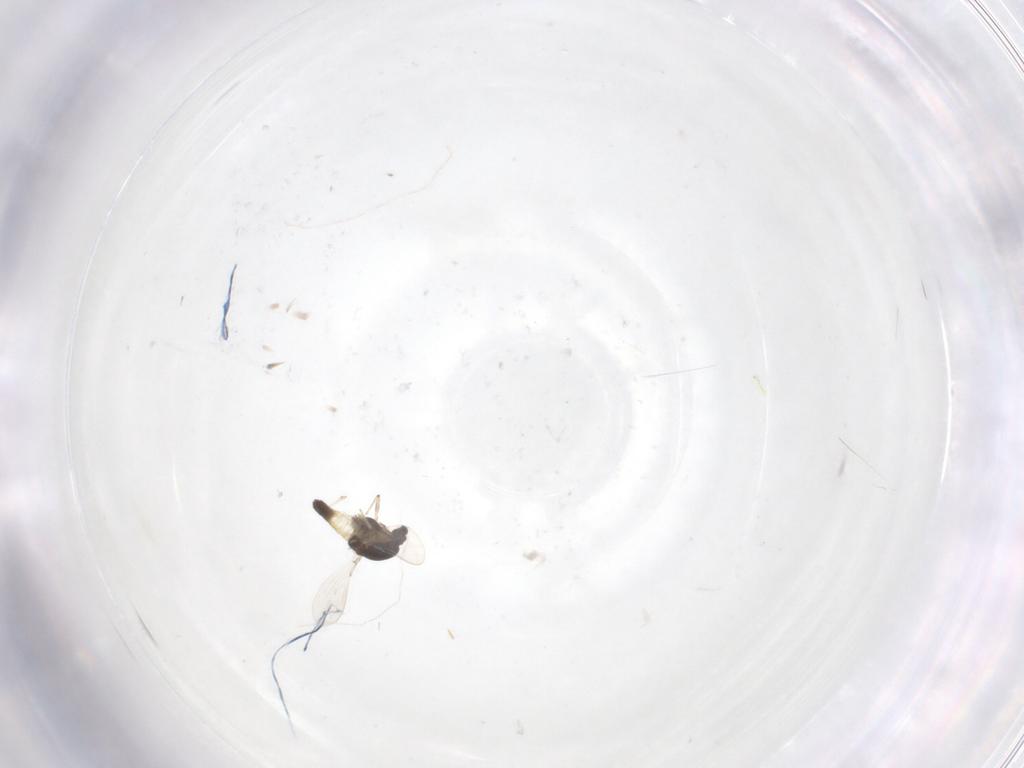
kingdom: Animalia
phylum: Arthropoda
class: Insecta
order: Diptera
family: Chironomidae
